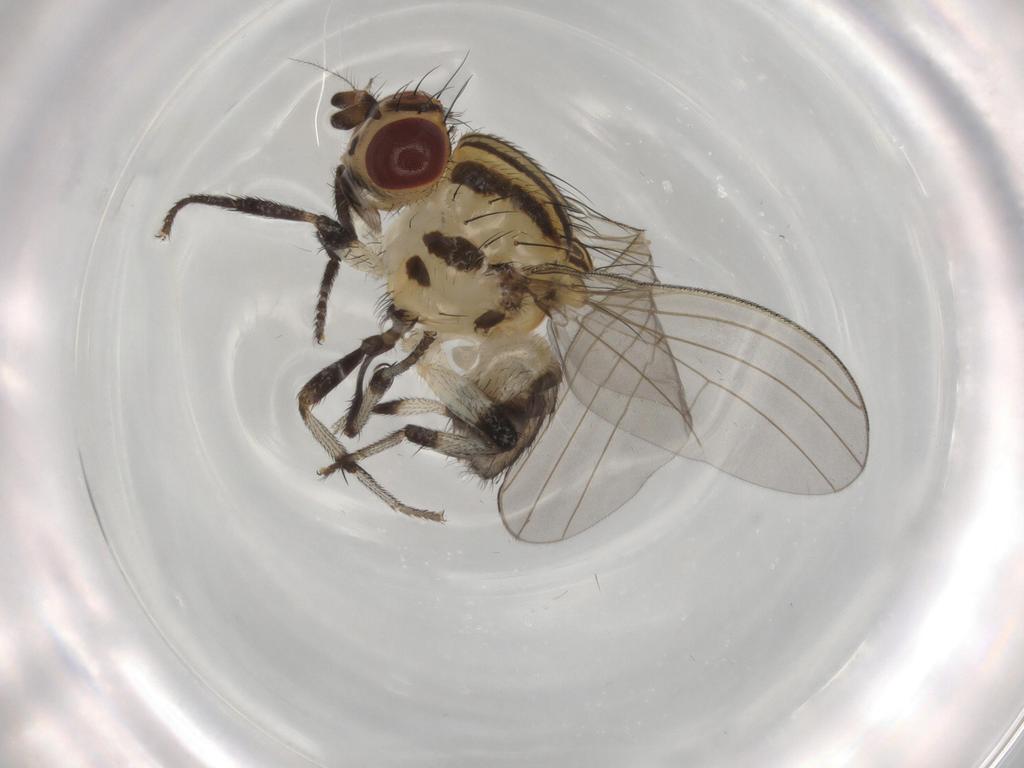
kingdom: Animalia
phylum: Arthropoda
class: Insecta
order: Diptera
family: Lauxaniidae
